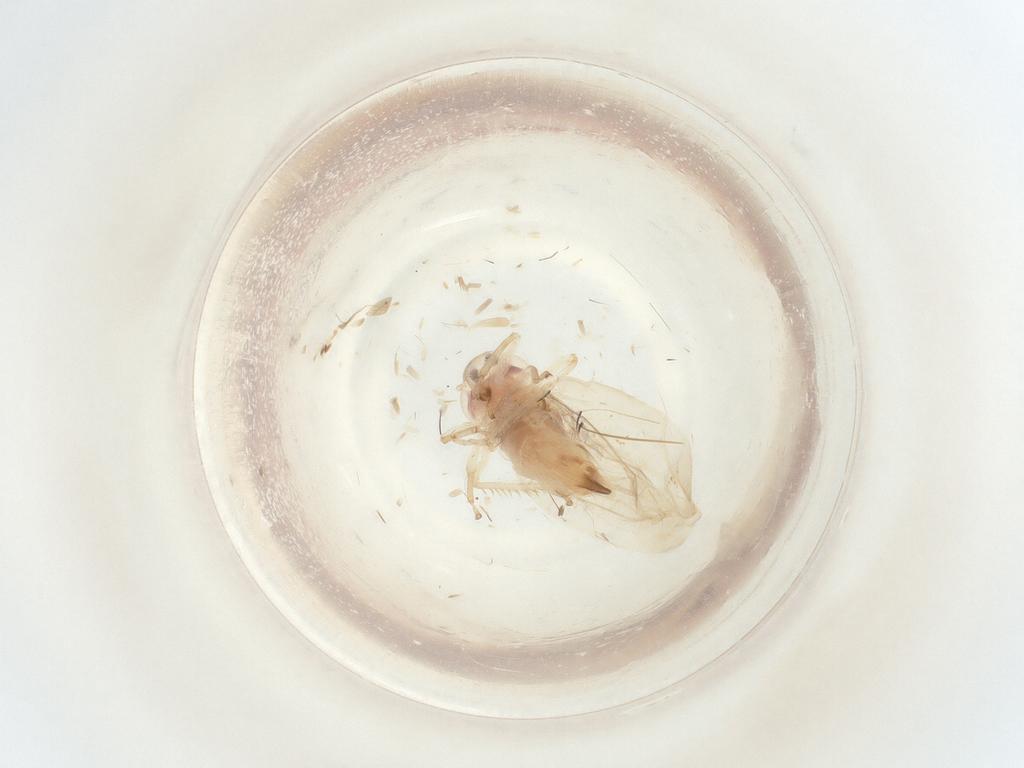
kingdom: Animalia
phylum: Arthropoda
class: Insecta
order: Hemiptera
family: Cicadellidae
